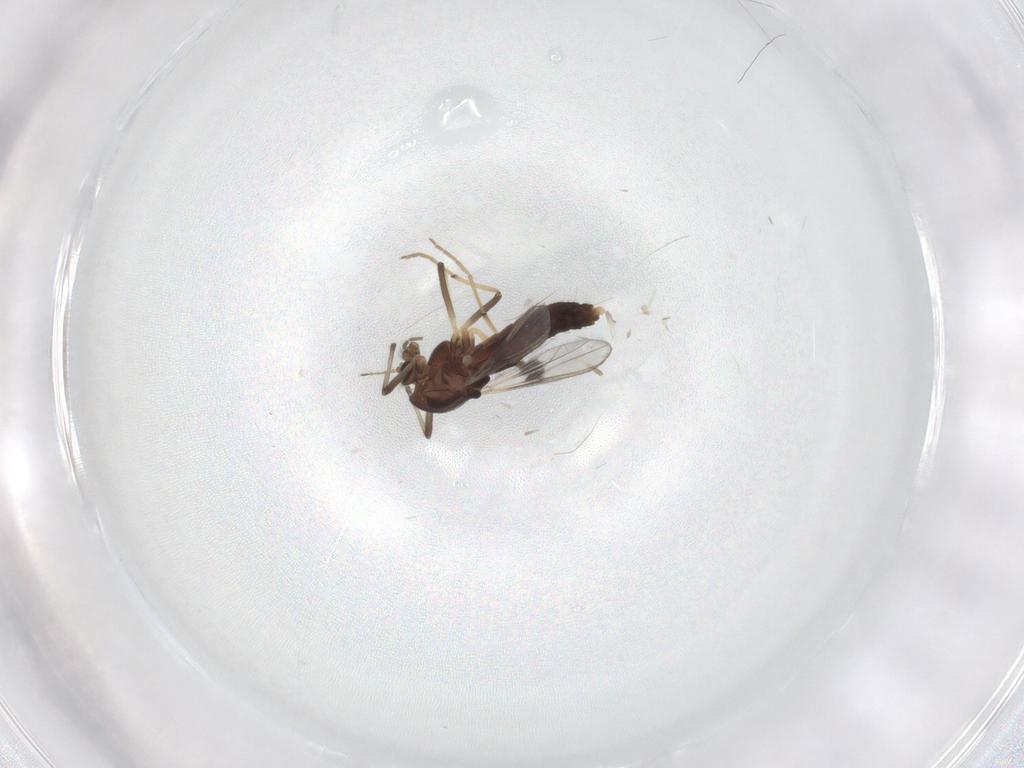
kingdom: Animalia
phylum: Arthropoda
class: Insecta
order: Diptera
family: Chironomidae
